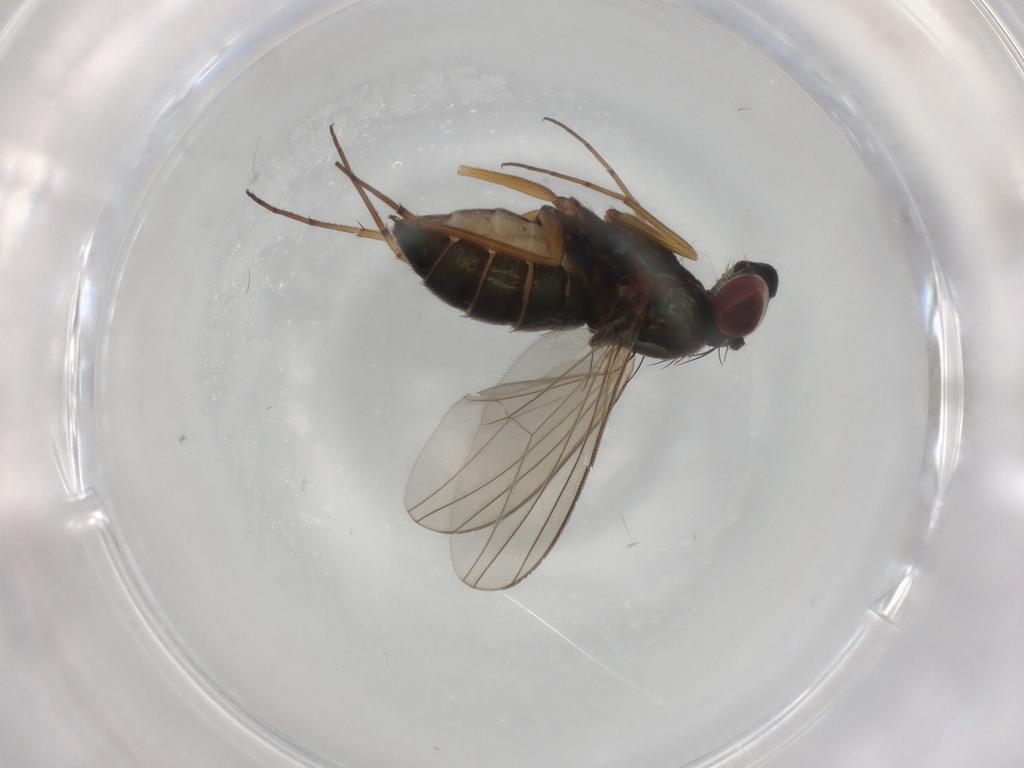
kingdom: Animalia
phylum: Arthropoda
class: Insecta
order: Diptera
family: Dolichopodidae
